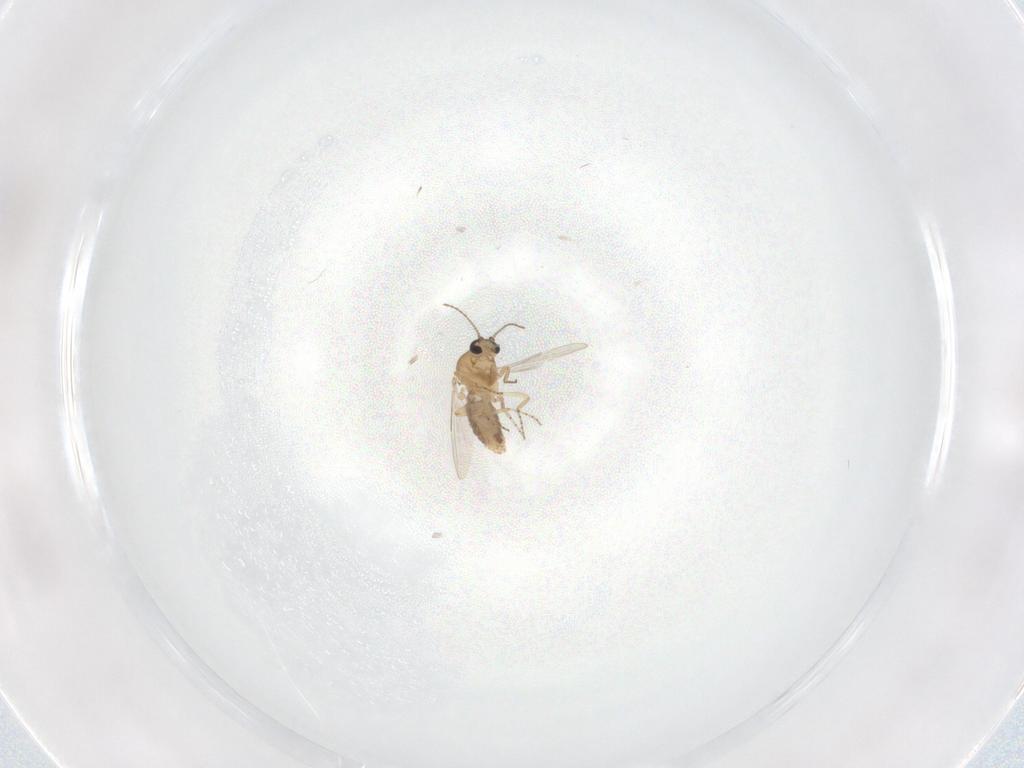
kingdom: Animalia
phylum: Arthropoda
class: Insecta
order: Diptera
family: Ceratopogonidae
